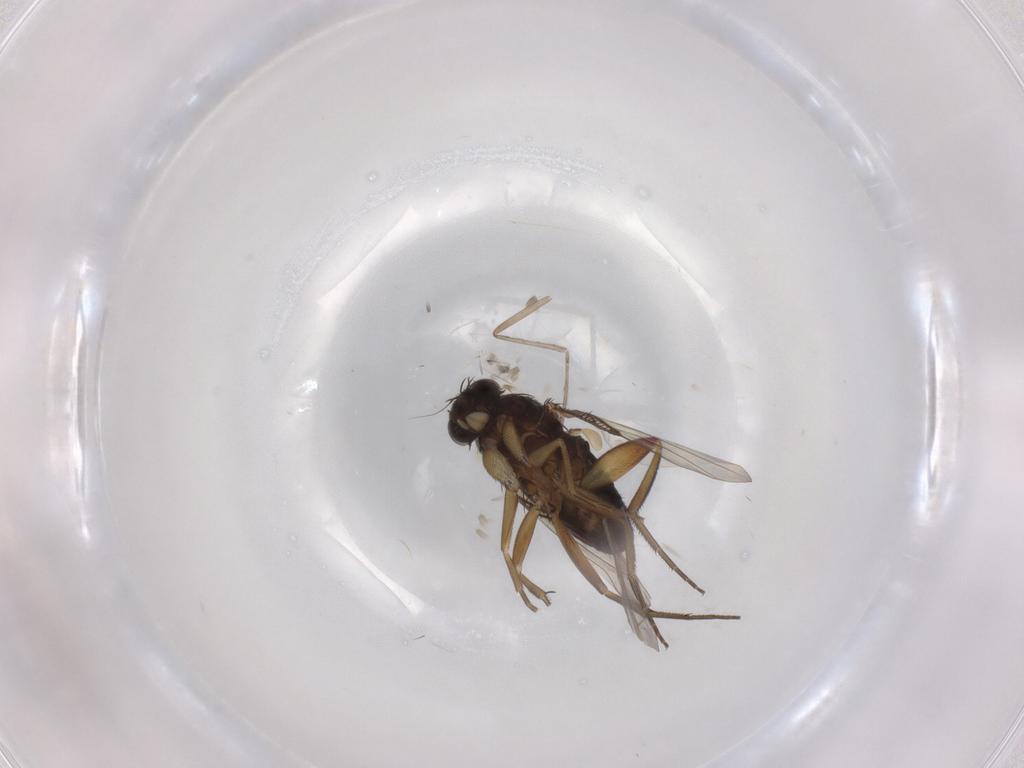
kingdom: Animalia
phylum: Arthropoda
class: Insecta
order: Diptera
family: Phoridae
